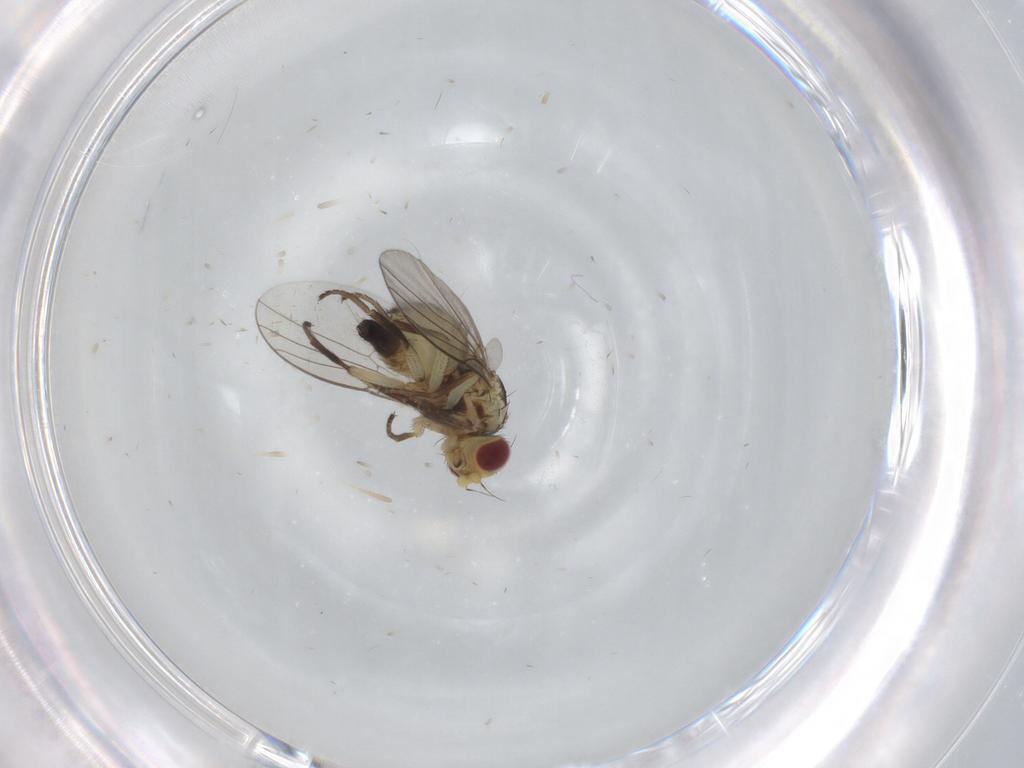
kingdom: Animalia
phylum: Arthropoda
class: Insecta
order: Diptera
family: Agromyzidae
